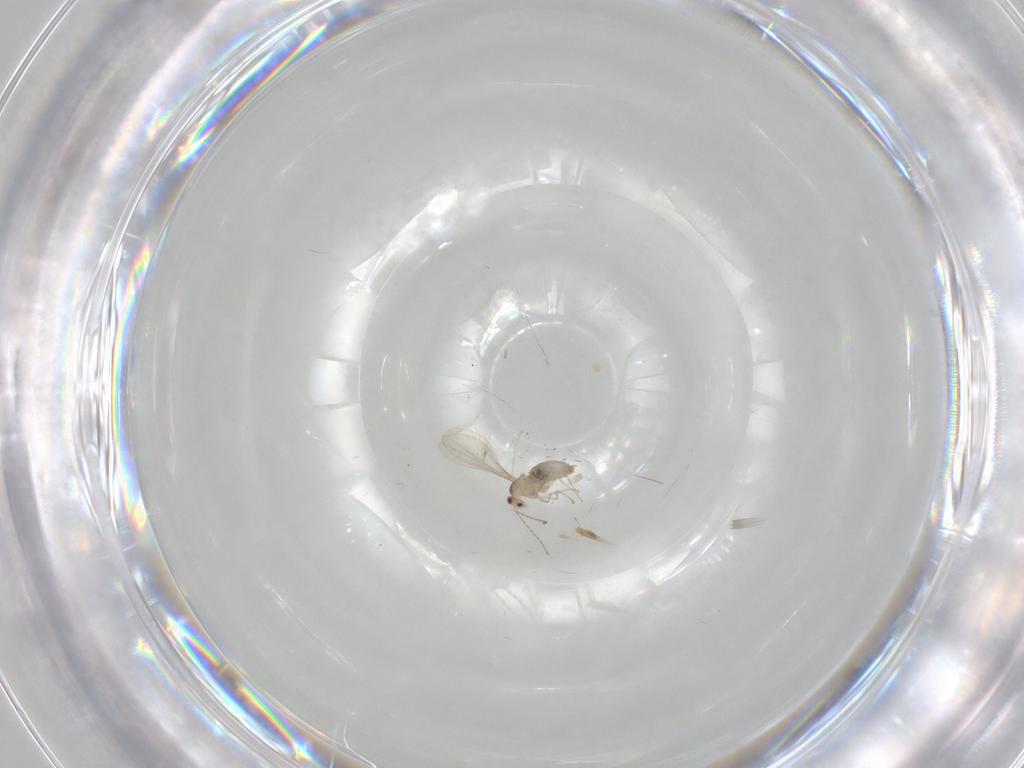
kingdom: Animalia
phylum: Arthropoda
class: Insecta
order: Diptera
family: Cecidomyiidae
